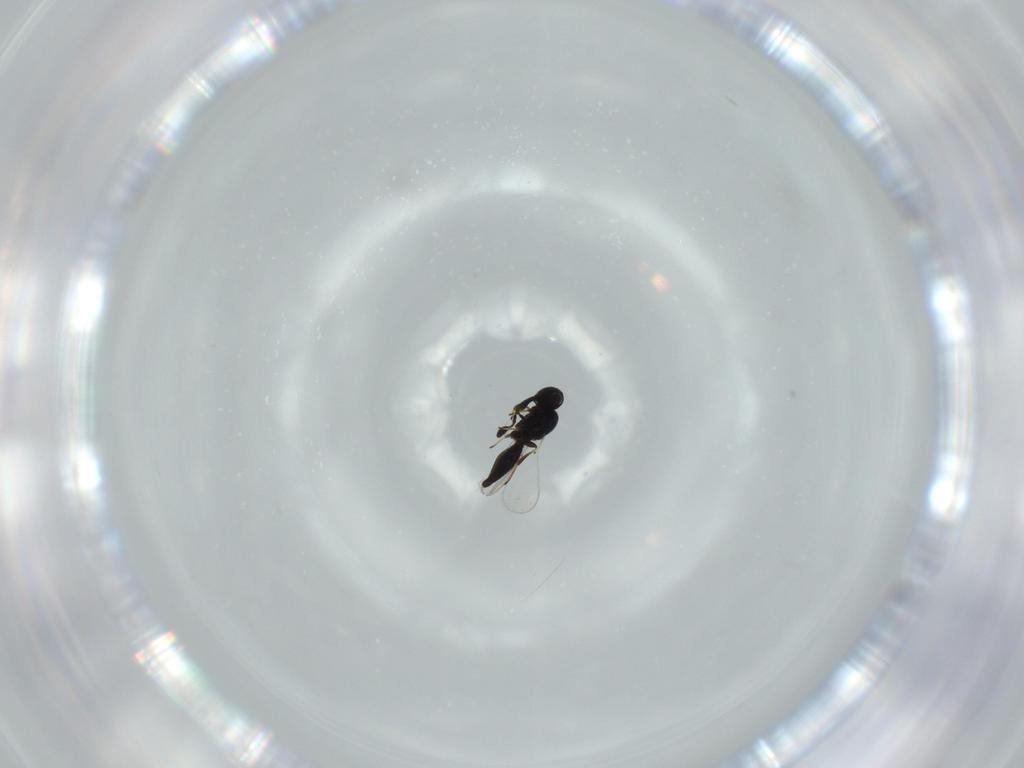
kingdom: Animalia
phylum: Arthropoda
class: Insecta
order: Hymenoptera
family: Platygastridae
